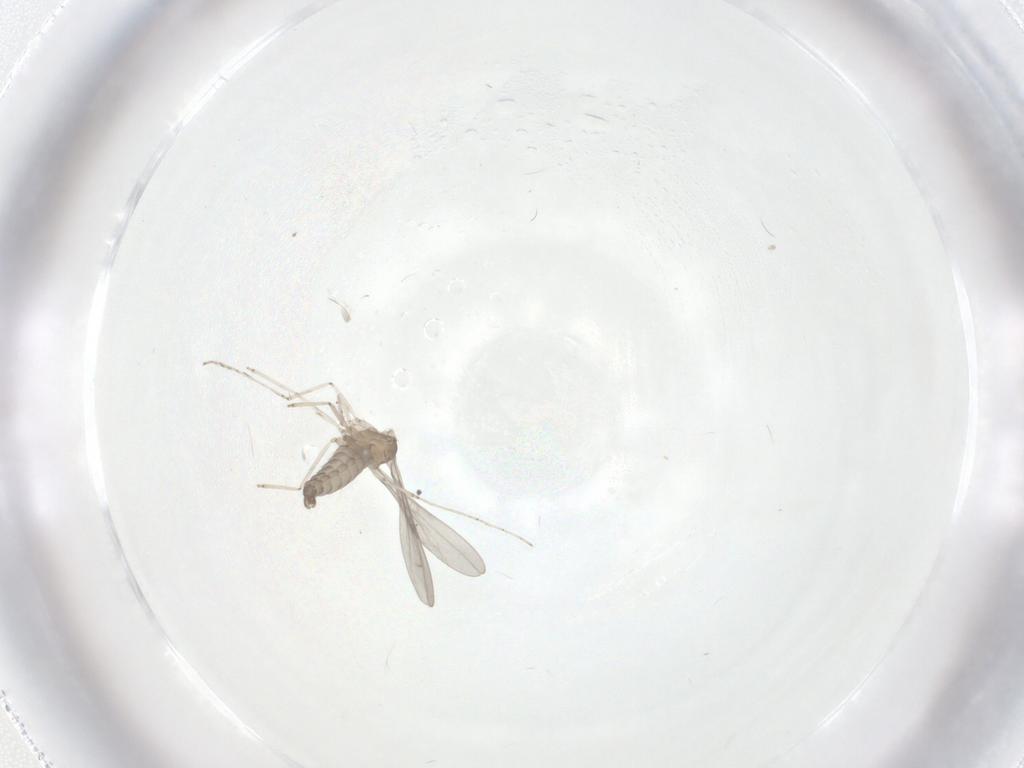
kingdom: Animalia
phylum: Arthropoda
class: Insecta
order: Diptera
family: Cecidomyiidae
